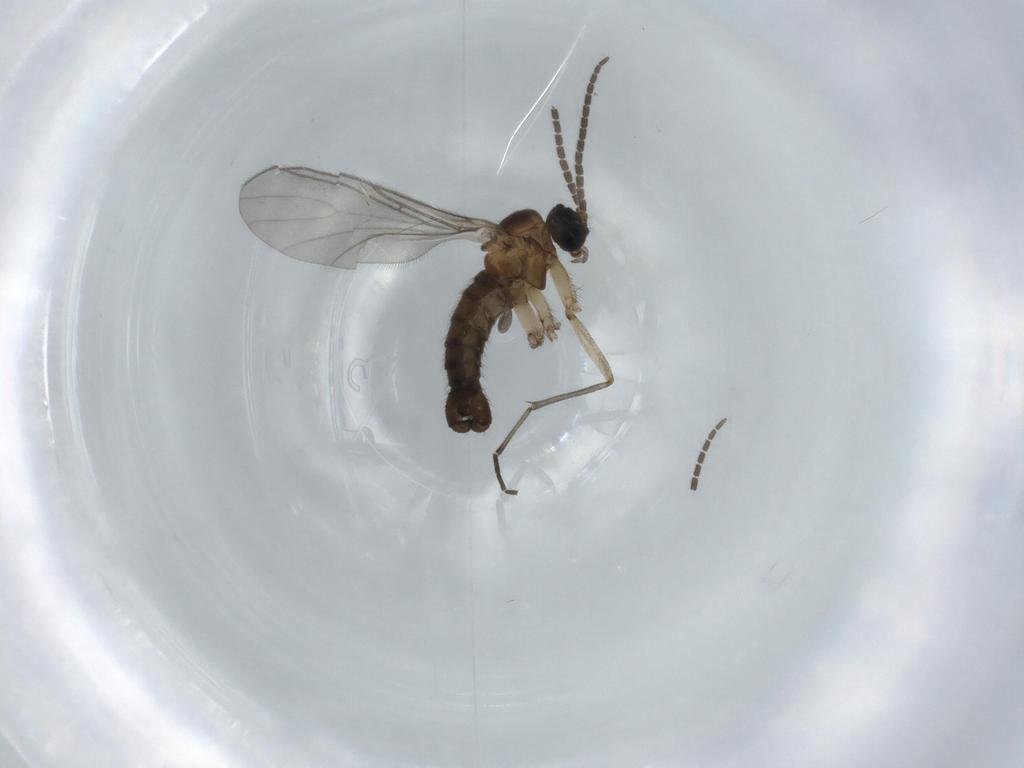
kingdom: Animalia
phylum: Arthropoda
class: Insecta
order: Diptera
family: Sciaridae
